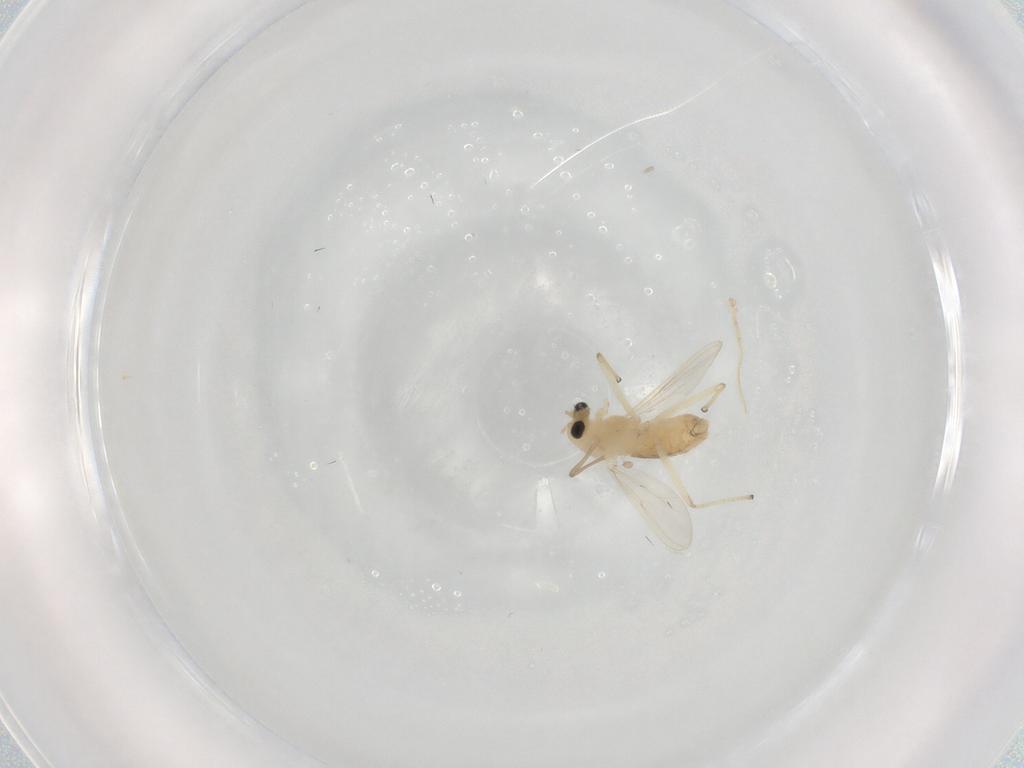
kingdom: Animalia
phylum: Arthropoda
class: Insecta
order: Diptera
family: Chironomidae
